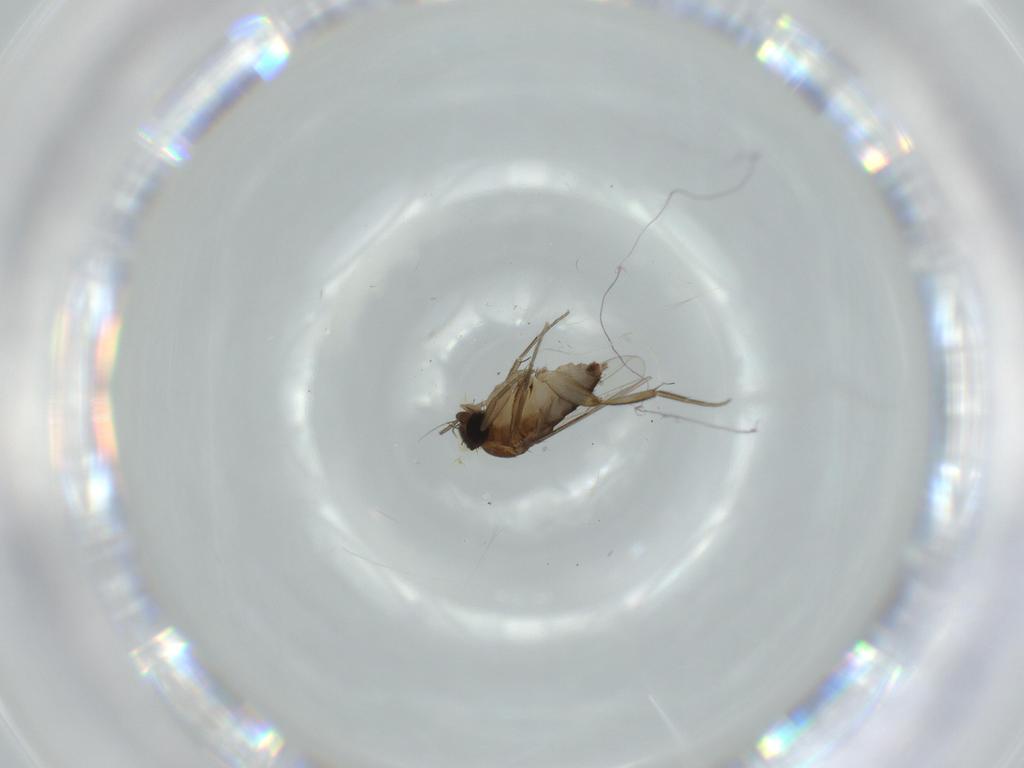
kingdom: Animalia
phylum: Arthropoda
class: Insecta
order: Diptera
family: Phoridae
